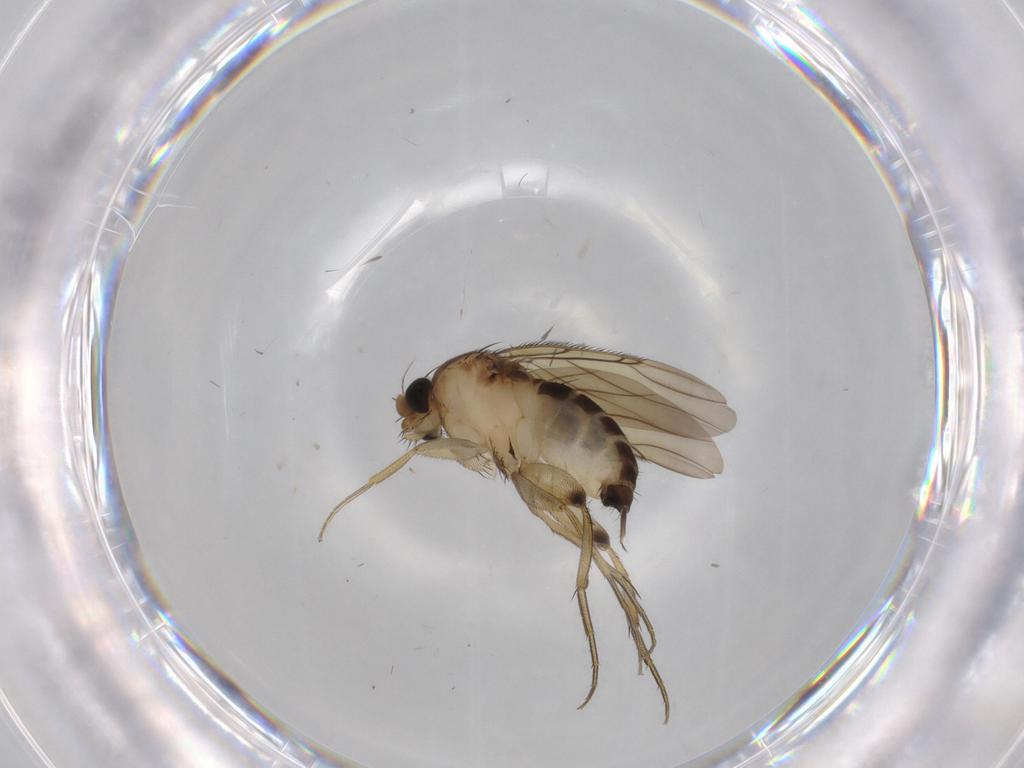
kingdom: Animalia
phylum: Arthropoda
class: Insecta
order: Diptera
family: Phoridae
